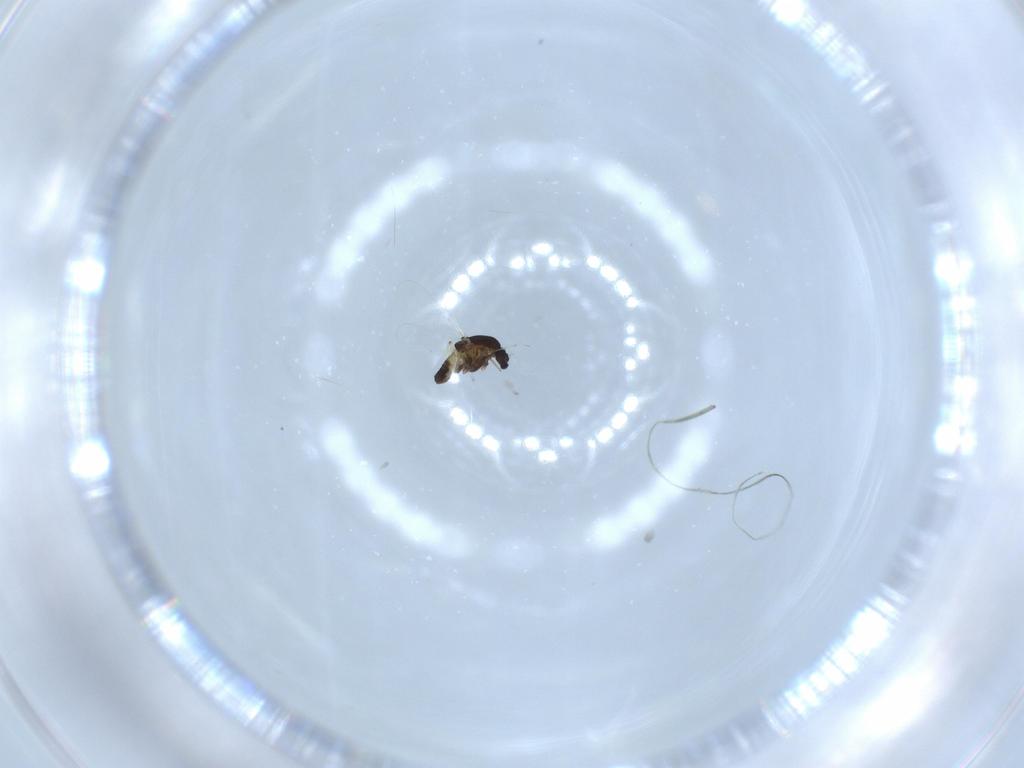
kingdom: Animalia
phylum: Arthropoda
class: Insecta
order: Diptera
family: Chironomidae
